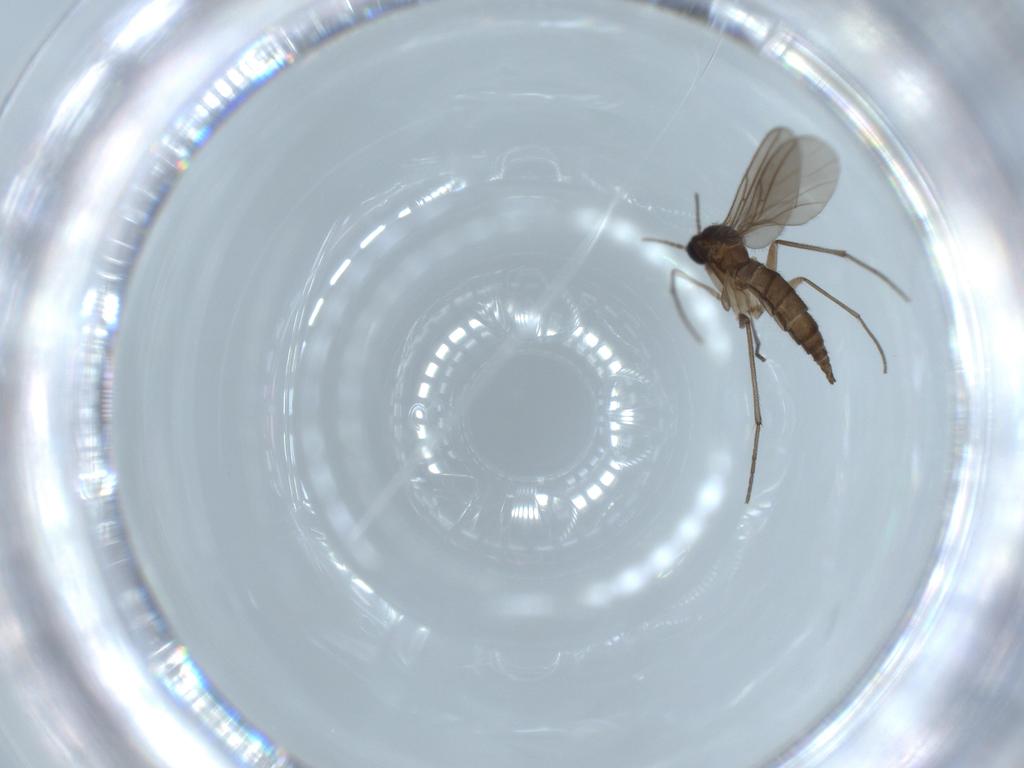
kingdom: Animalia
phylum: Arthropoda
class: Insecta
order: Diptera
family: Sciaridae
